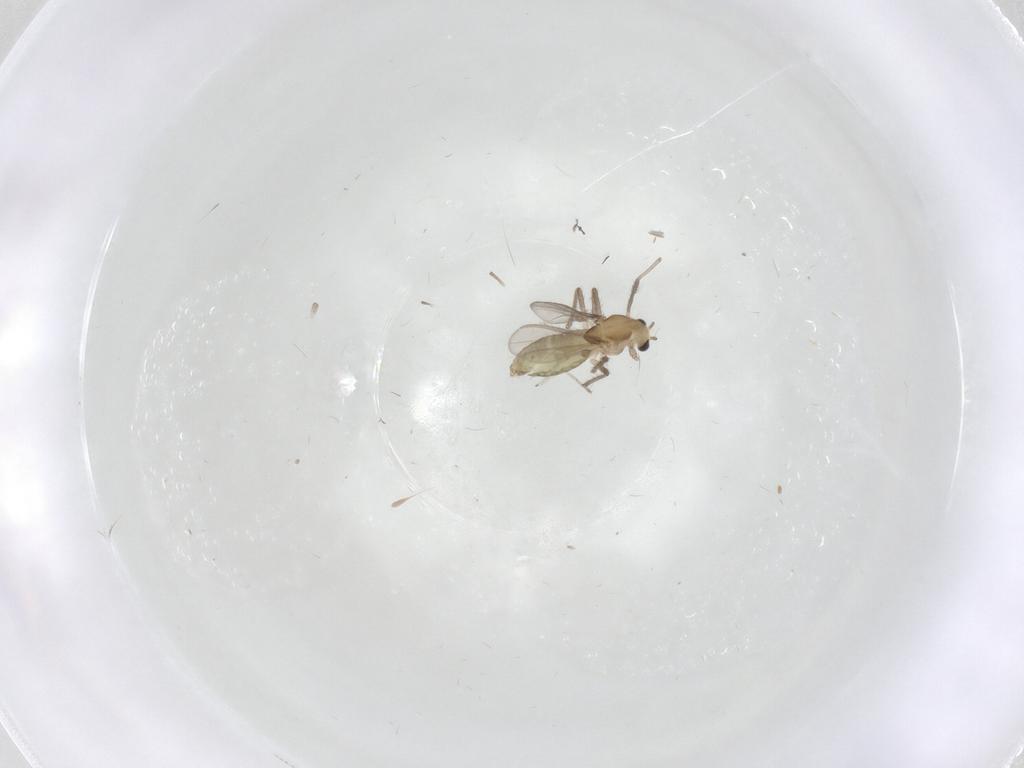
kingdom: Animalia
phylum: Arthropoda
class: Insecta
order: Diptera
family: Chironomidae
